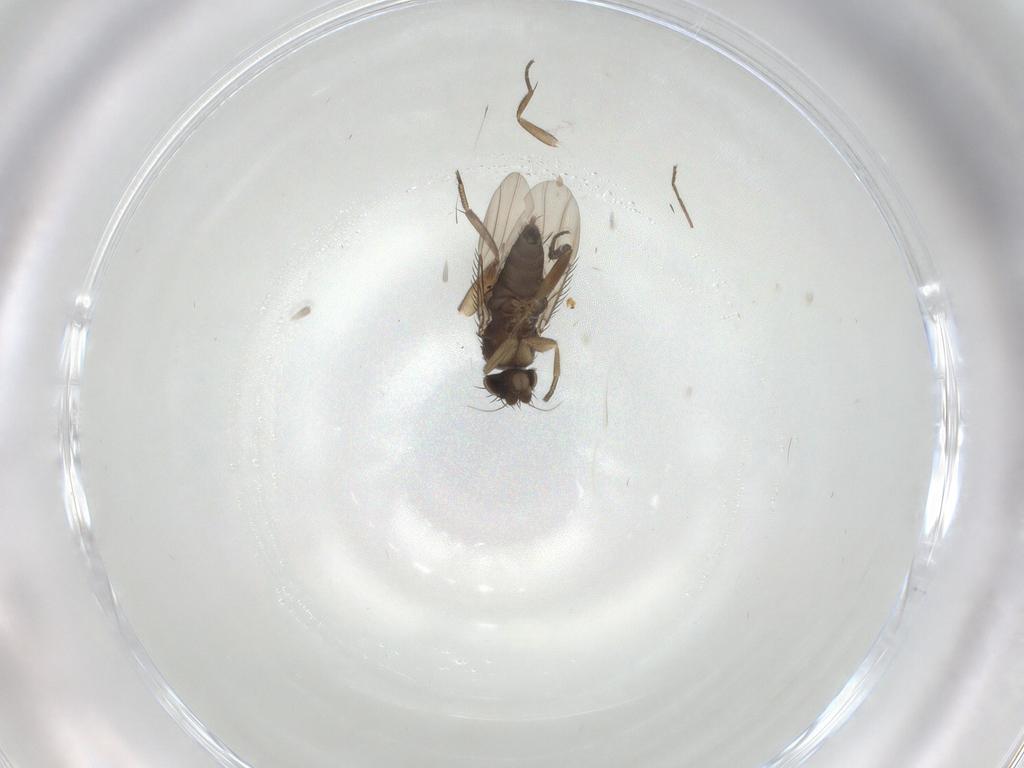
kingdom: Animalia
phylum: Arthropoda
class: Insecta
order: Diptera
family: Phoridae
